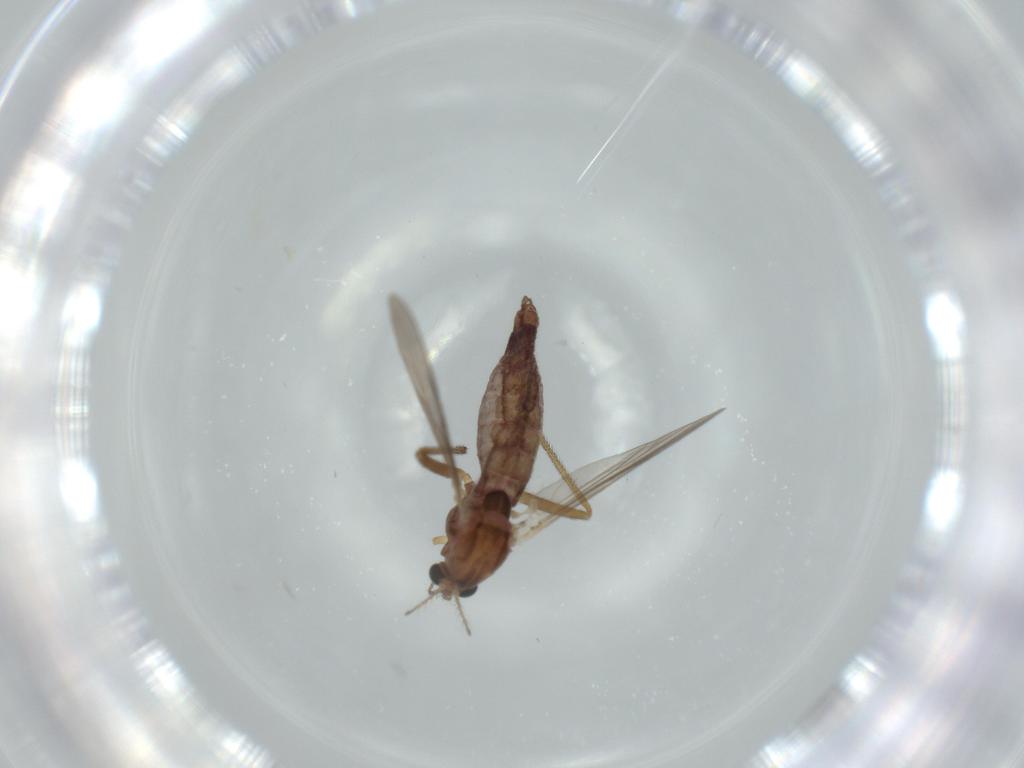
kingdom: Animalia
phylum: Arthropoda
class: Insecta
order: Diptera
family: Chironomidae
